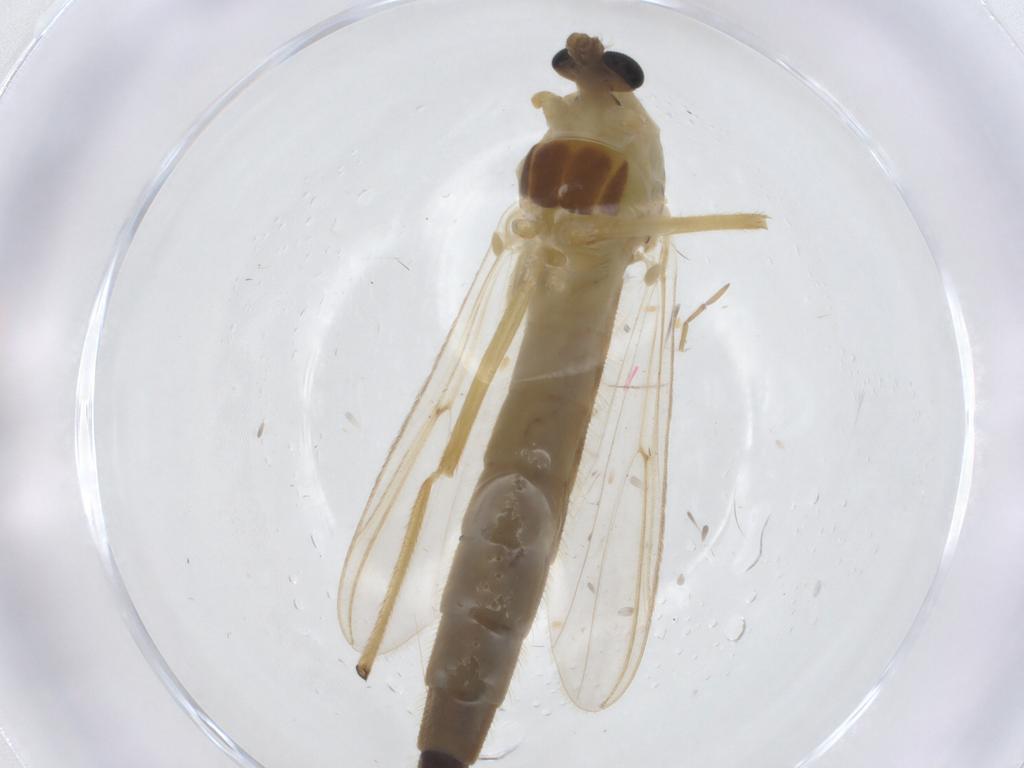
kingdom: Animalia
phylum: Arthropoda
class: Insecta
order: Diptera
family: Chironomidae
